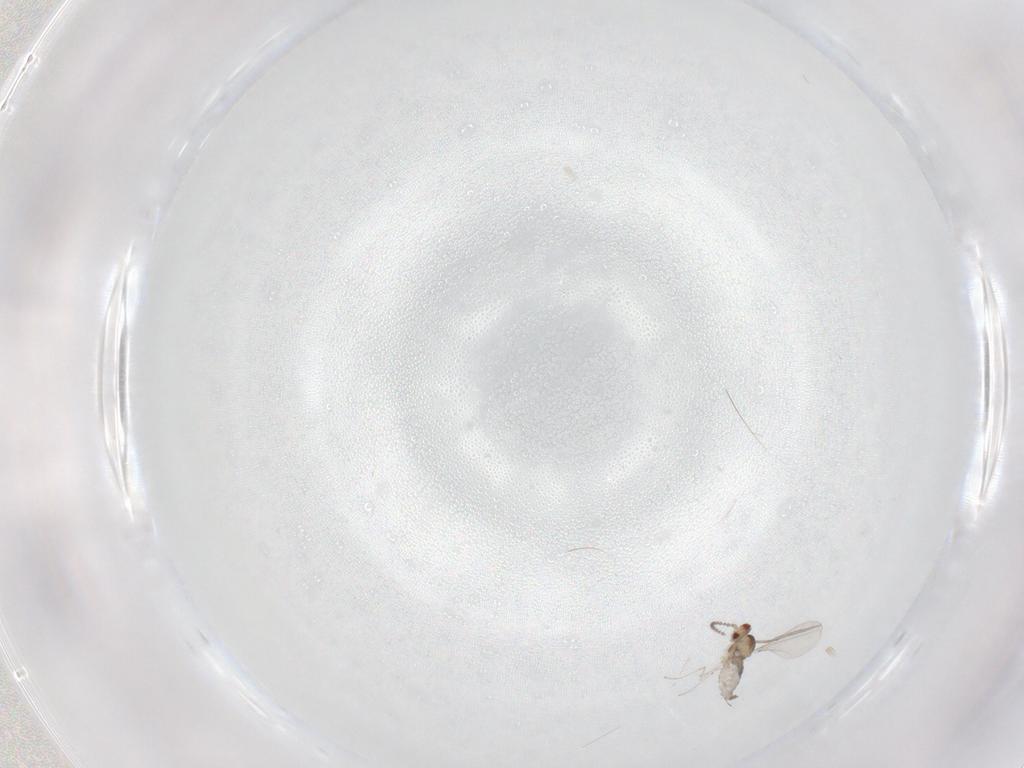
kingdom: Animalia
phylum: Arthropoda
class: Insecta
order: Diptera
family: Cecidomyiidae
